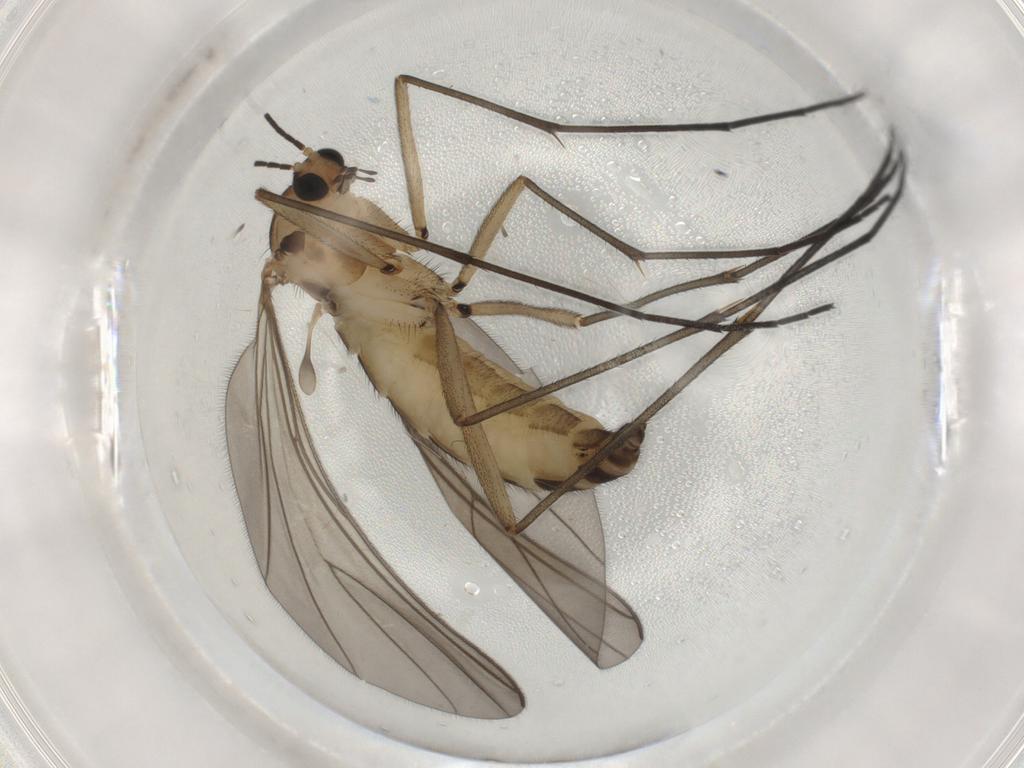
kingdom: Animalia
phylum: Arthropoda
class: Insecta
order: Diptera
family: Sciaridae
